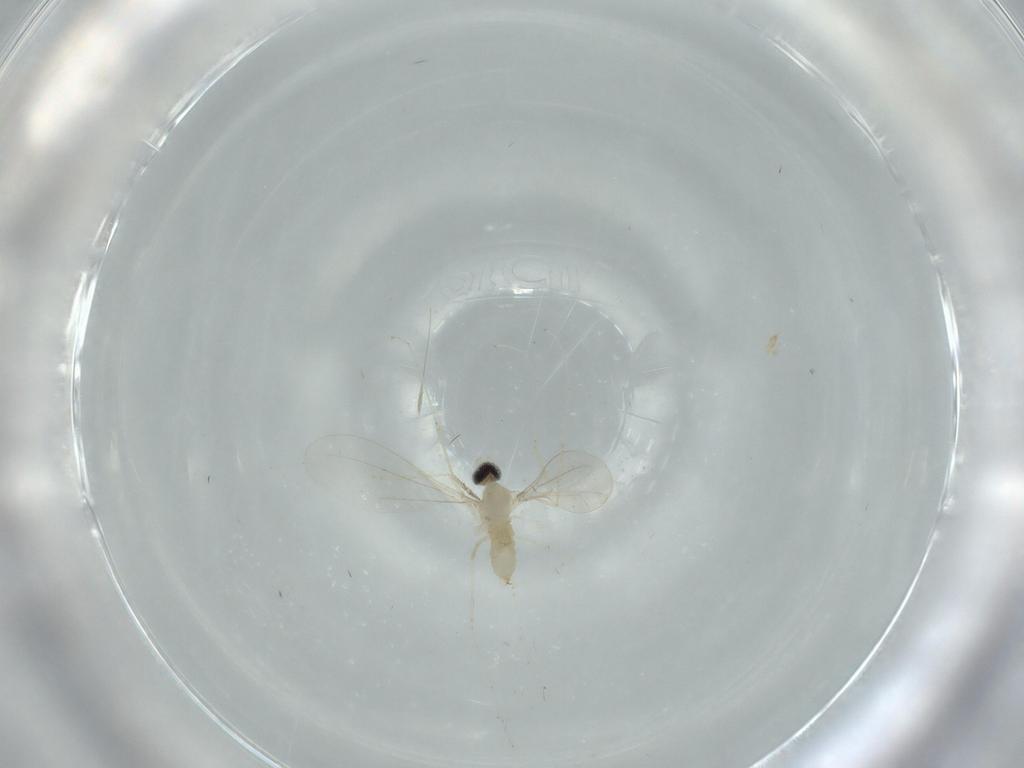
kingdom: Animalia
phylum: Arthropoda
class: Insecta
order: Diptera
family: Cecidomyiidae
